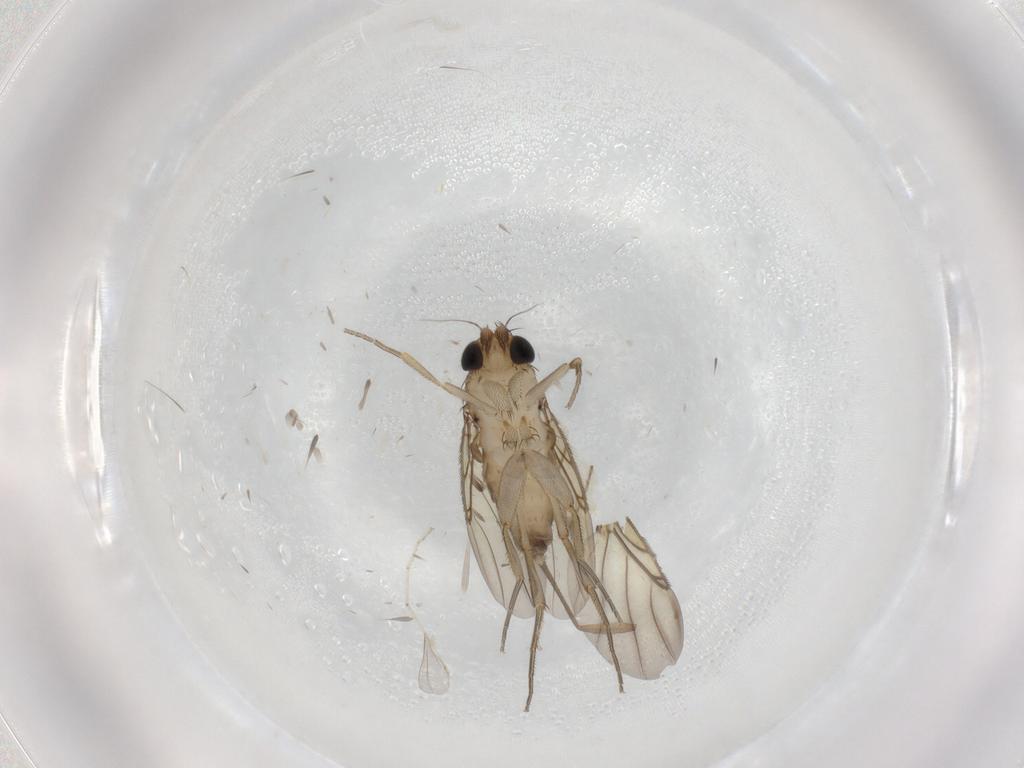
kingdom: Animalia
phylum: Arthropoda
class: Insecta
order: Diptera
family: Phoridae
